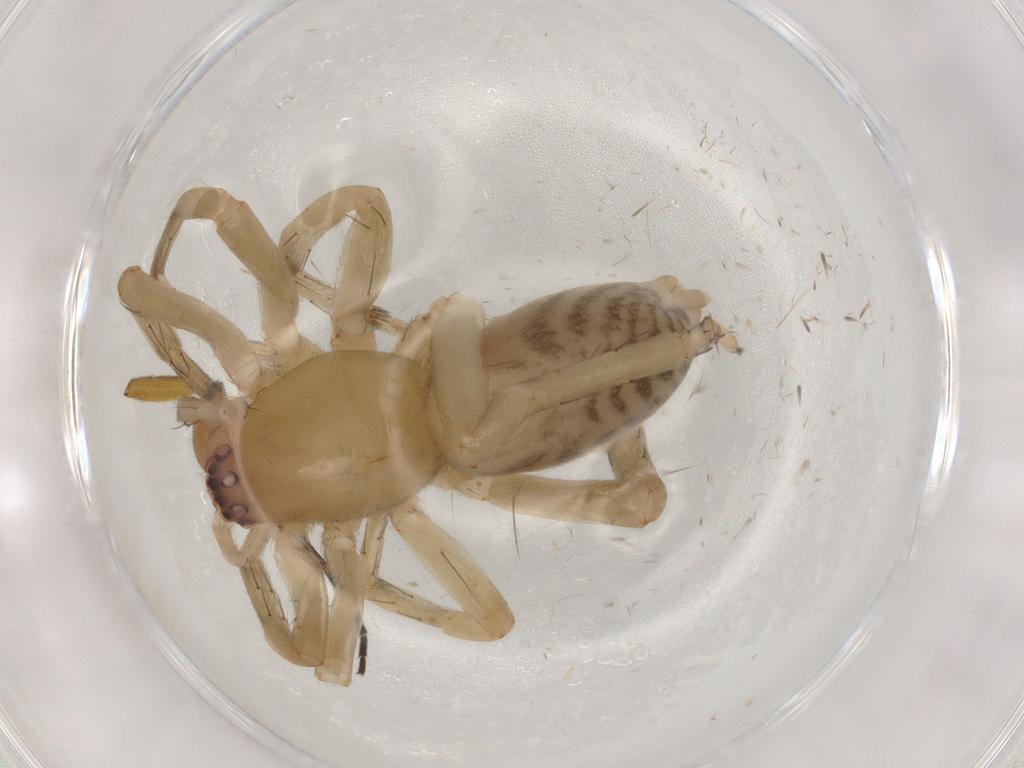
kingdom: Animalia
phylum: Arthropoda
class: Arachnida
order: Araneae
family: Anyphaenidae
